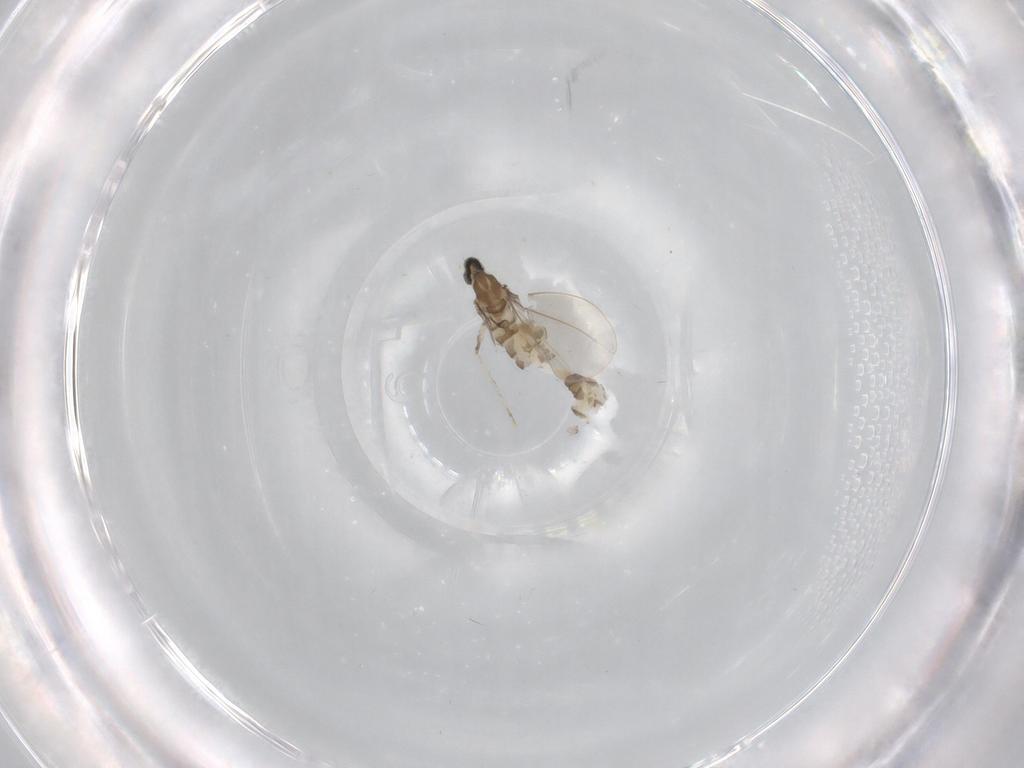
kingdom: Animalia
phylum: Arthropoda
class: Insecta
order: Diptera
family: Cecidomyiidae
